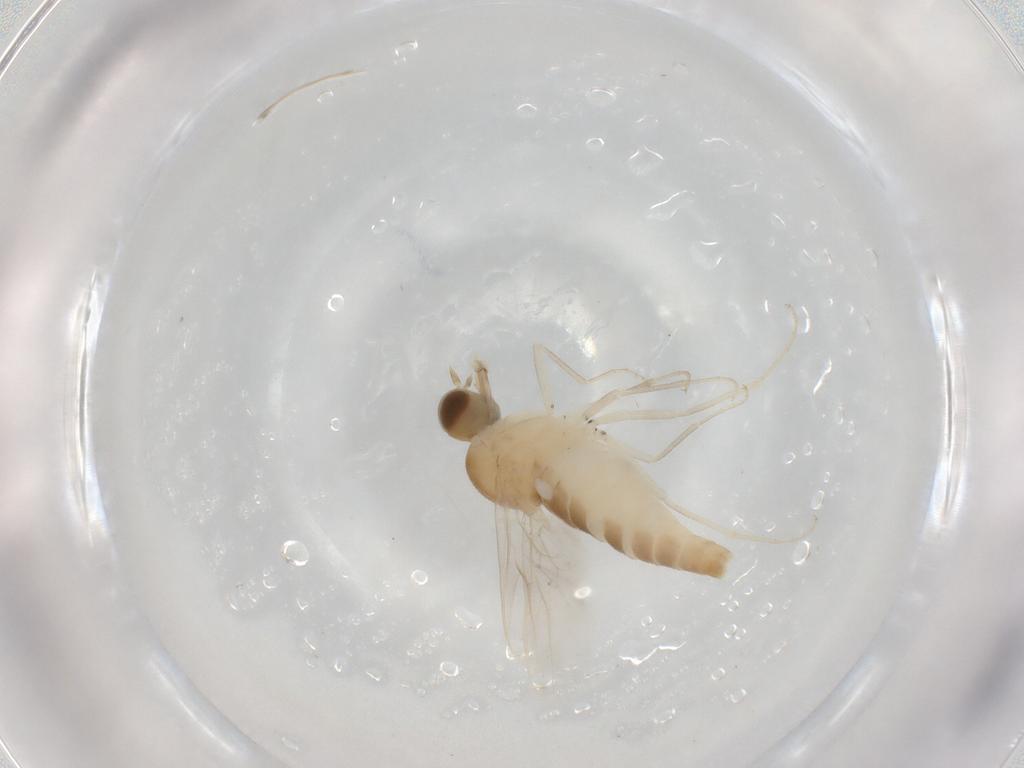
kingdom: Animalia
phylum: Arthropoda
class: Insecta
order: Diptera
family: Scenopinidae
